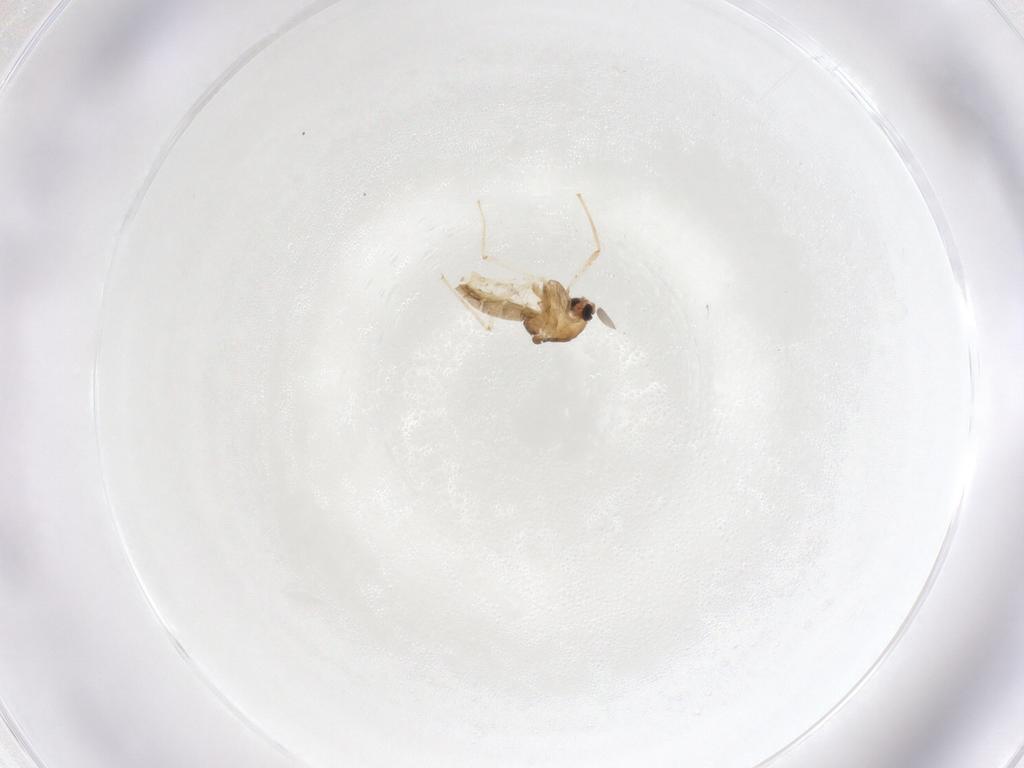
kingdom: Animalia
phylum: Arthropoda
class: Insecta
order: Diptera
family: Chironomidae
